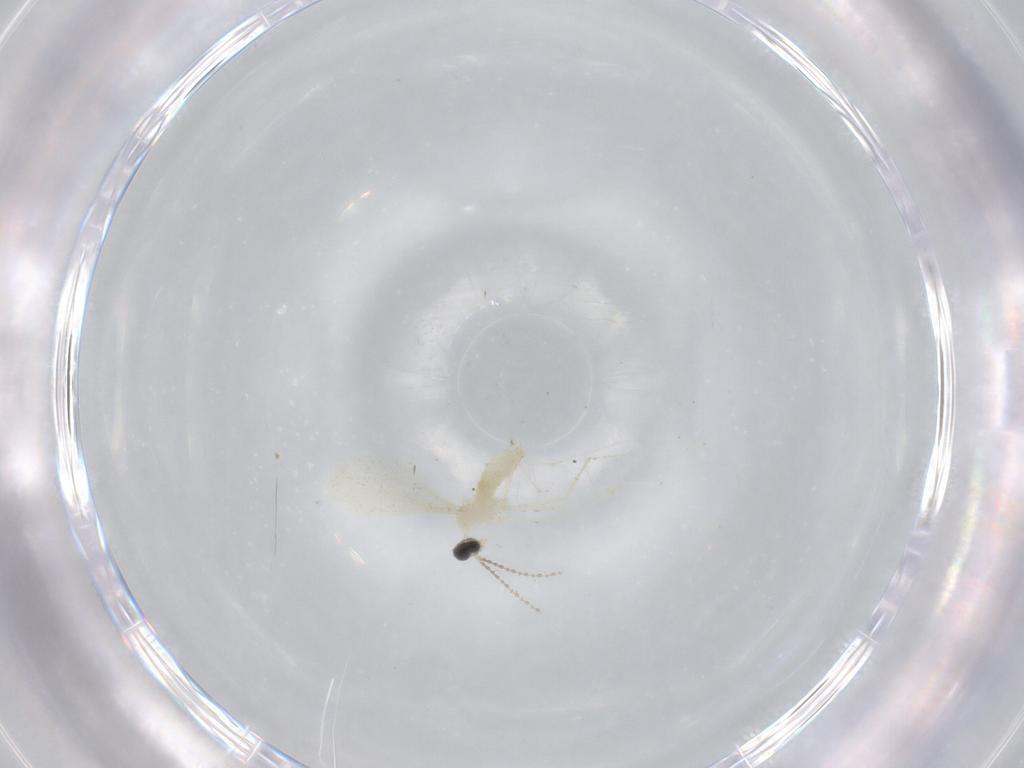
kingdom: Animalia
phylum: Arthropoda
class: Insecta
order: Diptera
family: Cecidomyiidae
